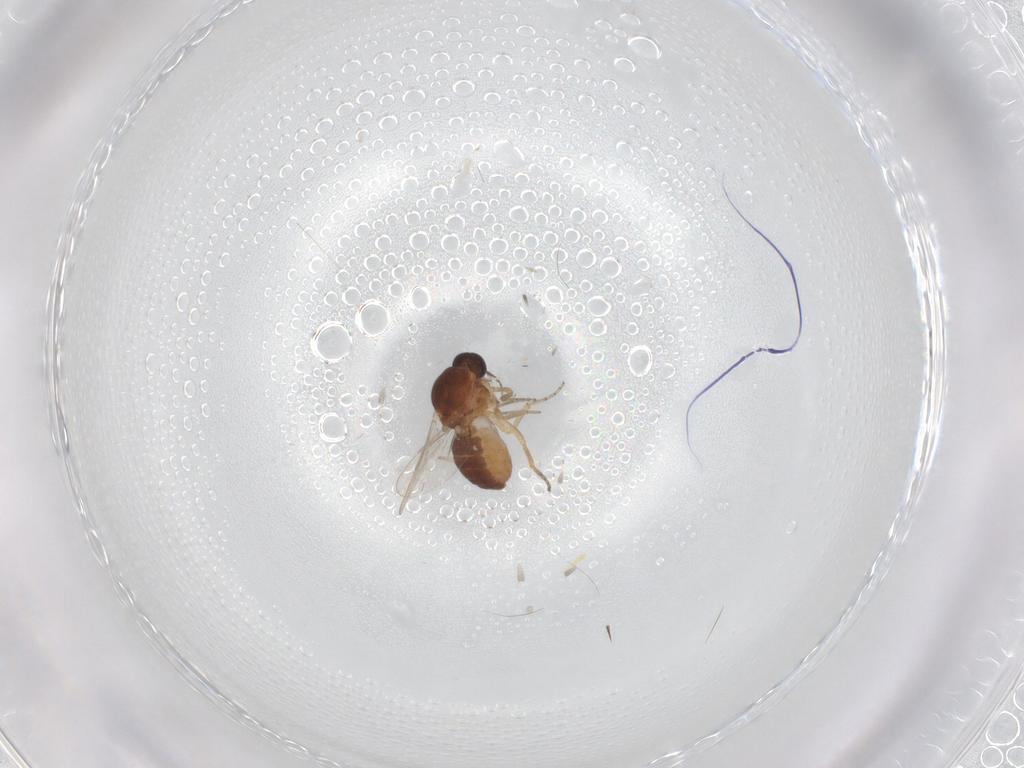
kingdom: Animalia
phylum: Arthropoda
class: Insecta
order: Diptera
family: Ceratopogonidae
